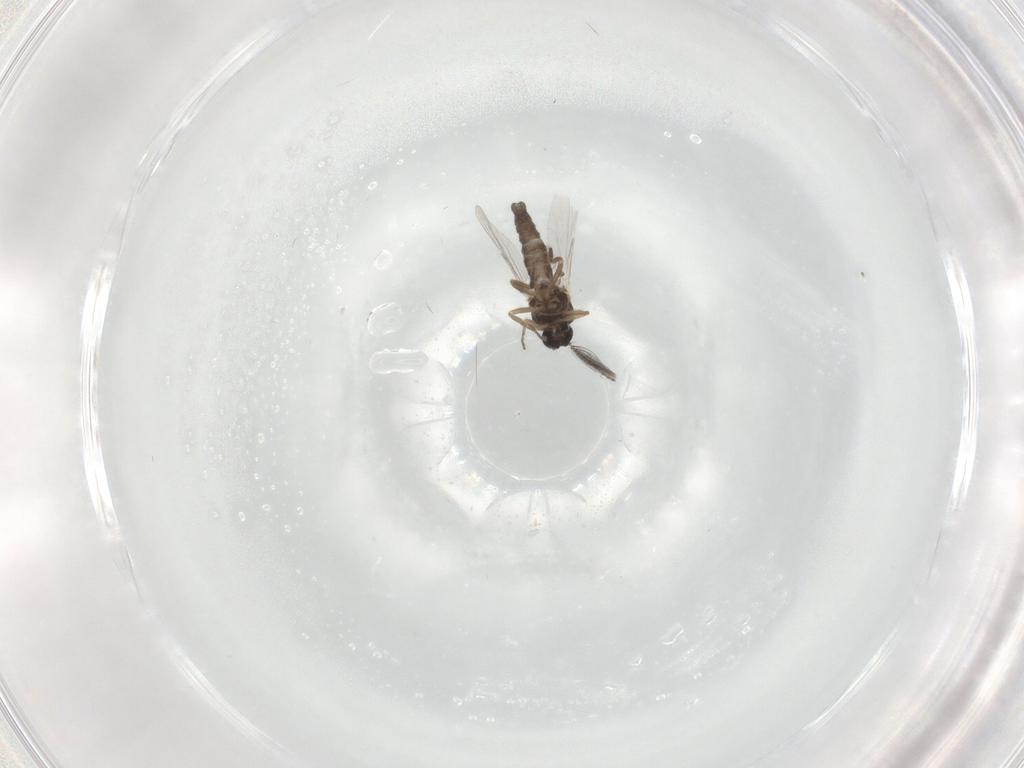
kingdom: Animalia
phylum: Arthropoda
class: Insecta
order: Diptera
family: Ceratopogonidae
